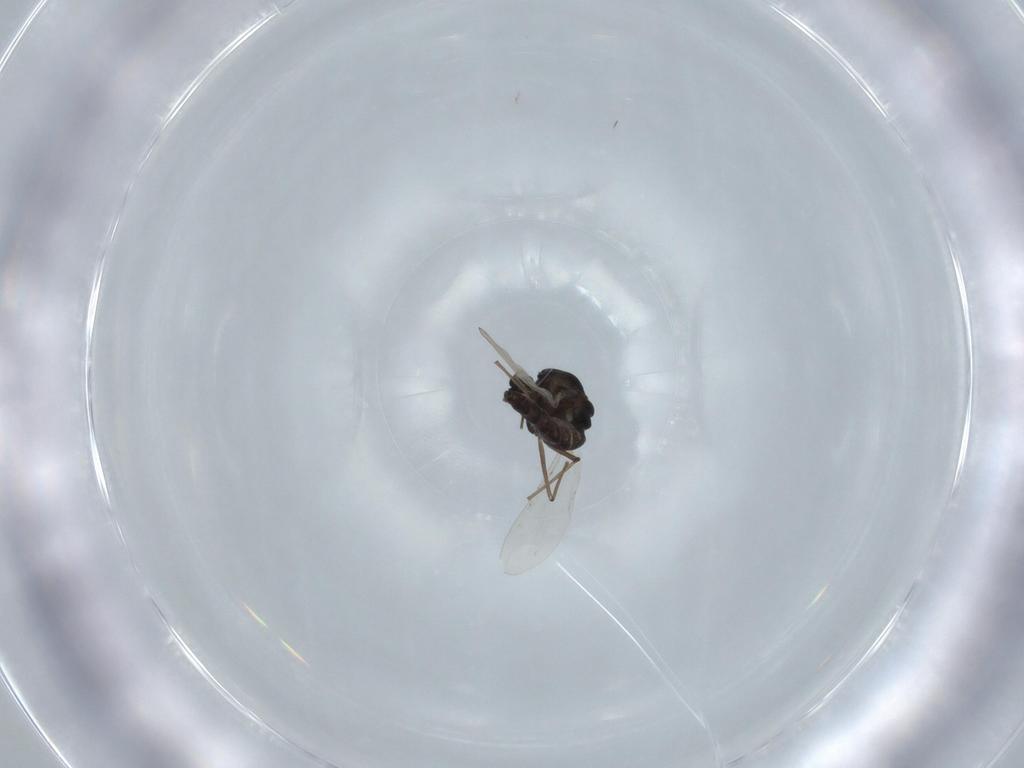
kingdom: Animalia
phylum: Arthropoda
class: Insecta
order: Diptera
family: Chironomidae
